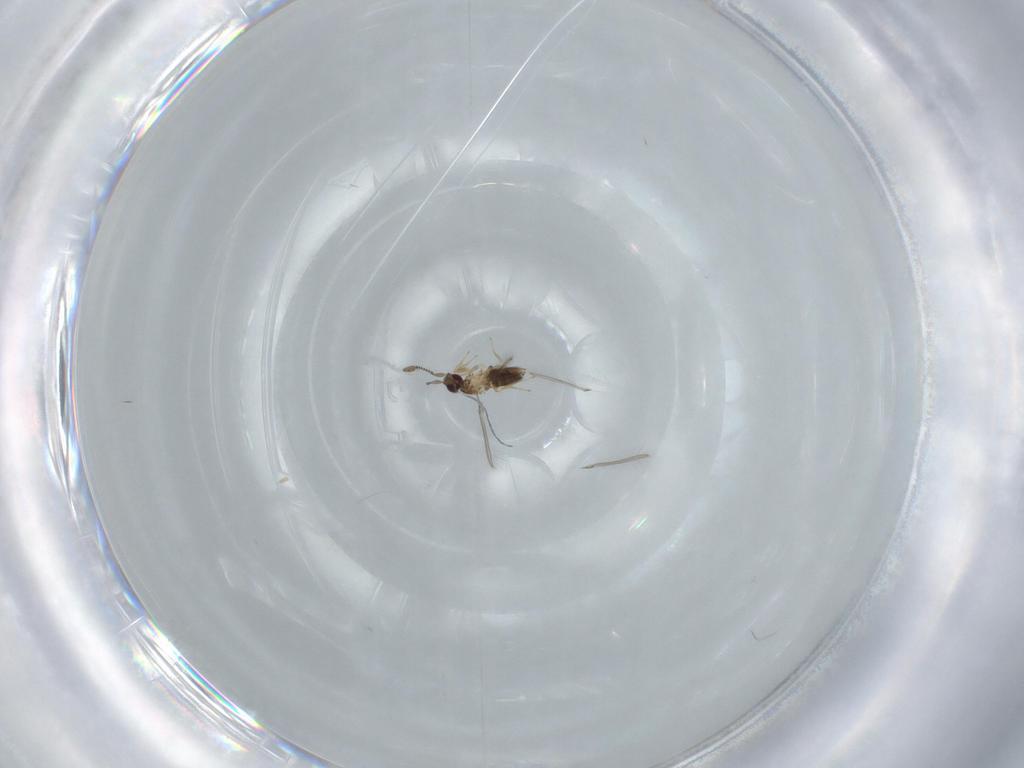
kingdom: Animalia
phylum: Arthropoda
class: Insecta
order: Hymenoptera
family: Mymaridae
